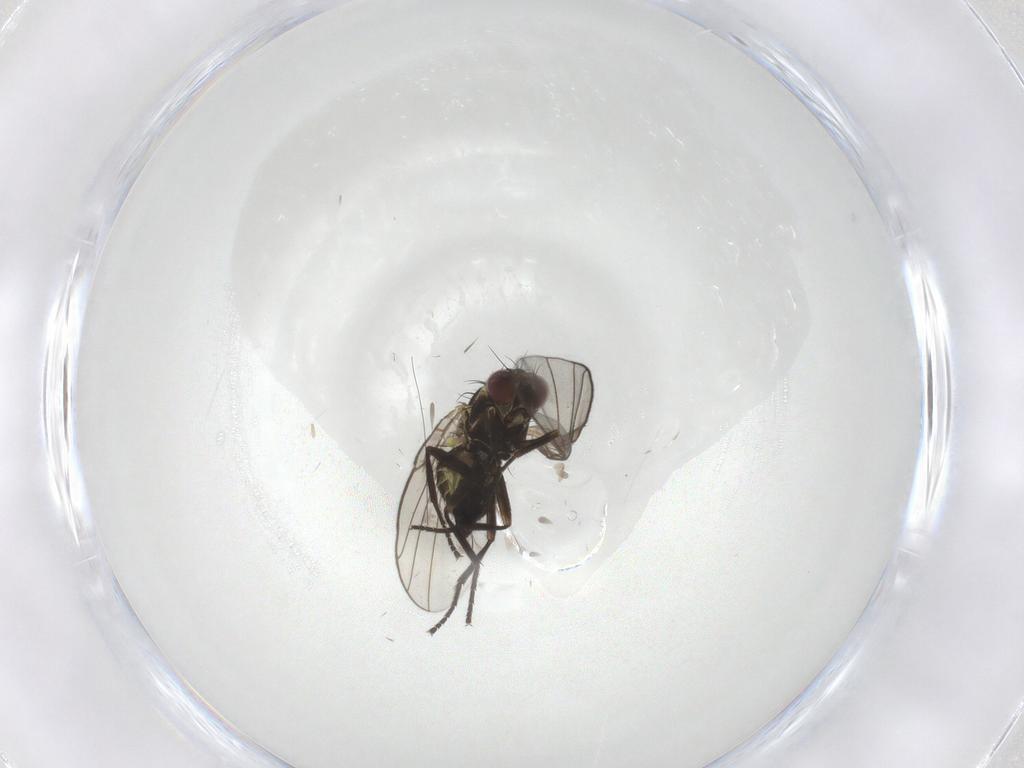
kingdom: Animalia
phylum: Arthropoda
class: Insecta
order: Diptera
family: Agromyzidae
